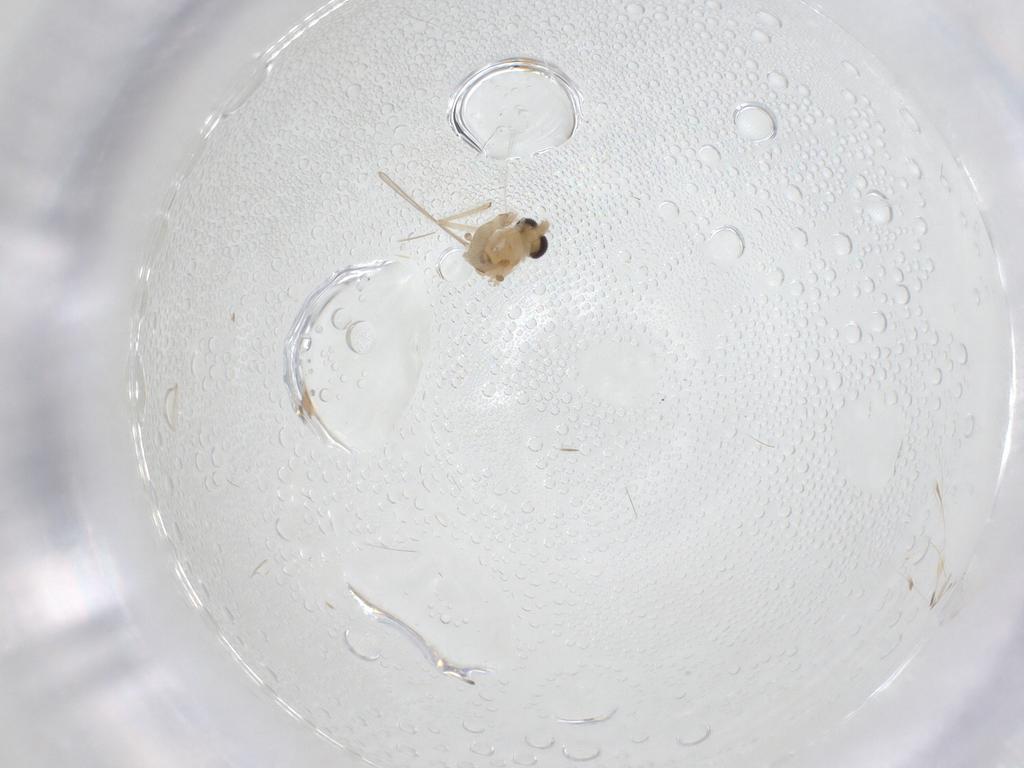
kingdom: Animalia
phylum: Arthropoda
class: Insecta
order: Diptera
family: Chironomidae
